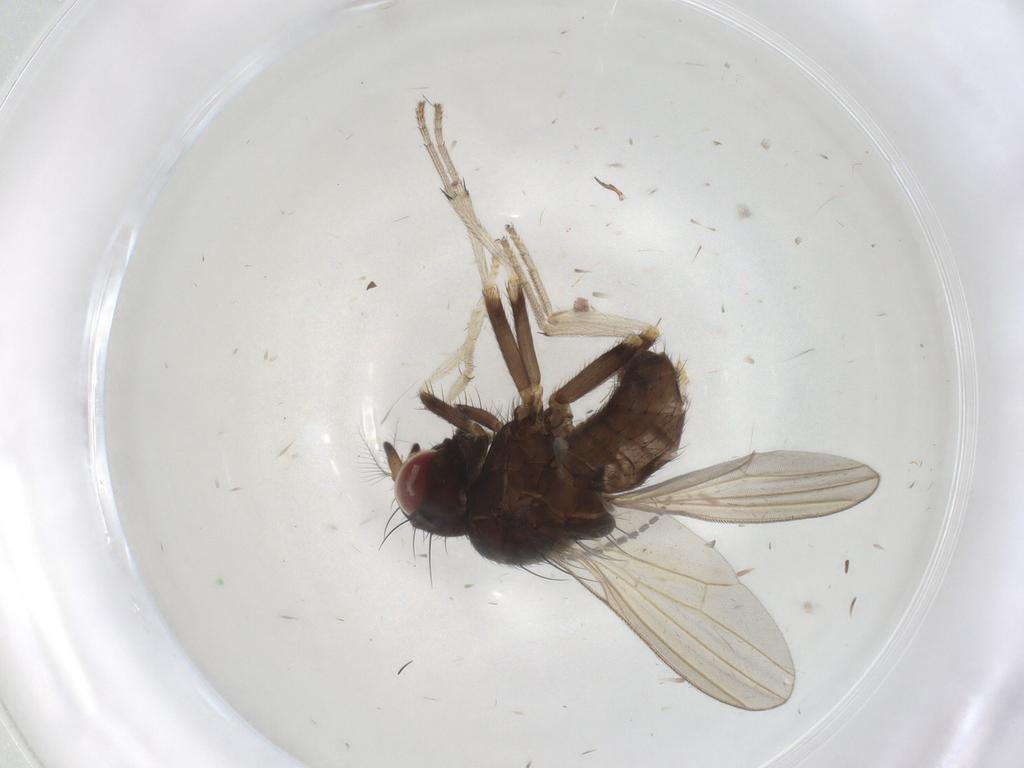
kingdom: Animalia
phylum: Arthropoda
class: Insecta
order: Diptera
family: Sciaridae
